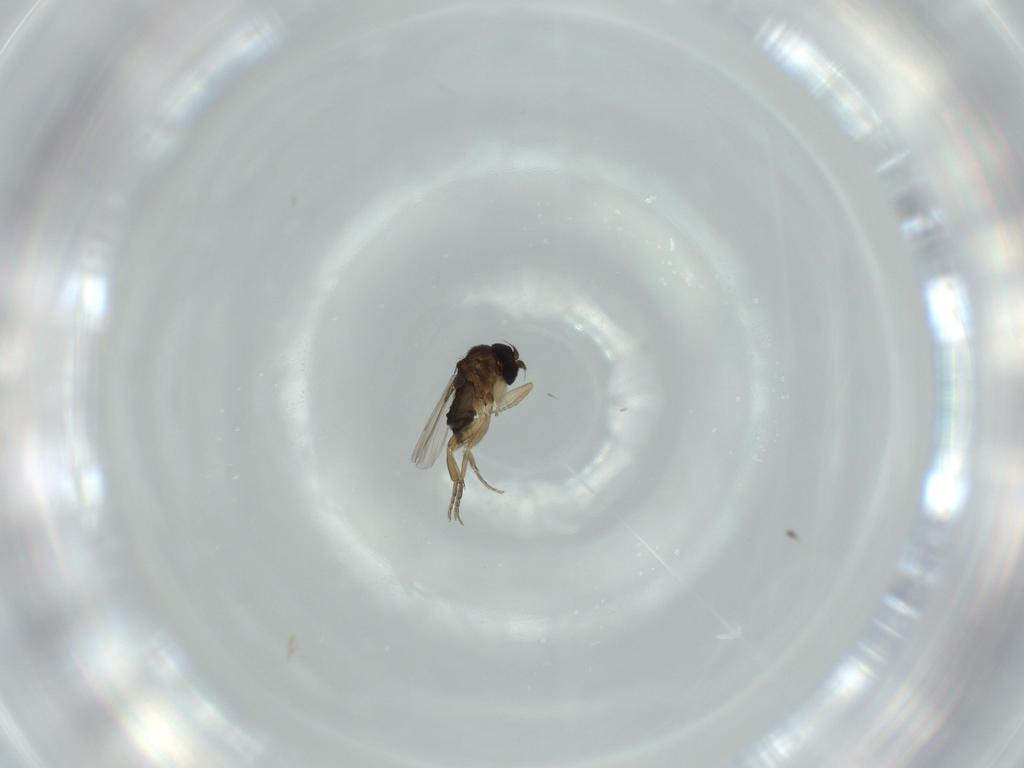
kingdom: Animalia
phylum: Arthropoda
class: Insecta
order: Diptera
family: Phoridae
